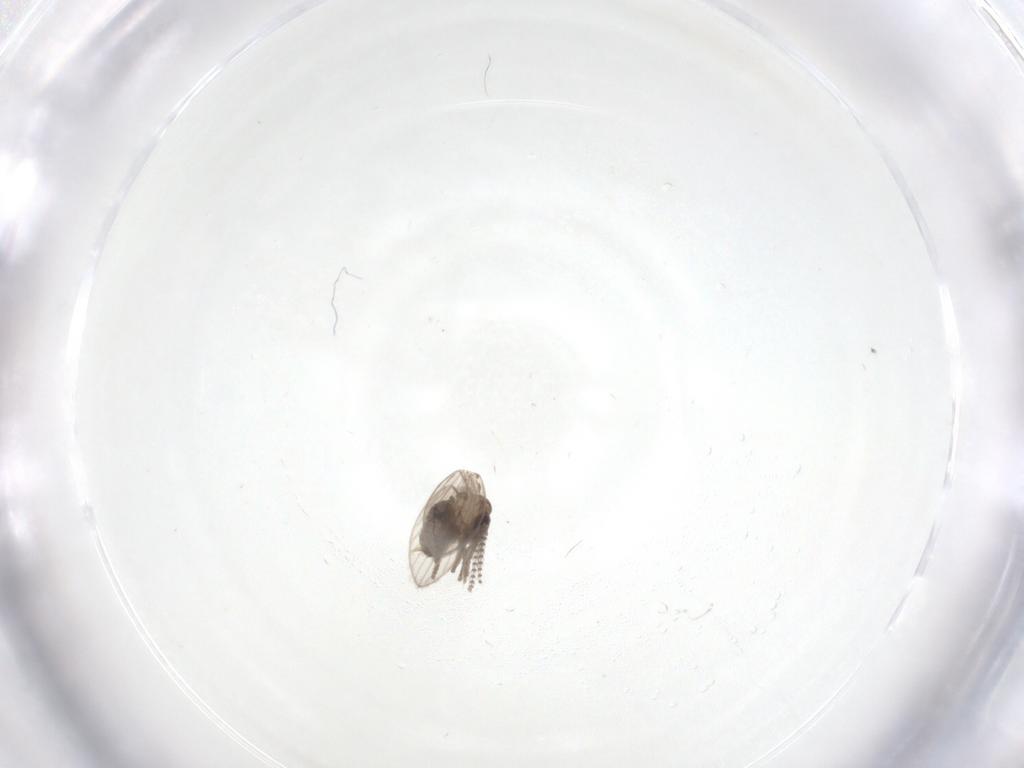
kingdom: Animalia
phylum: Arthropoda
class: Insecta
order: Diptera
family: Psychodidae
